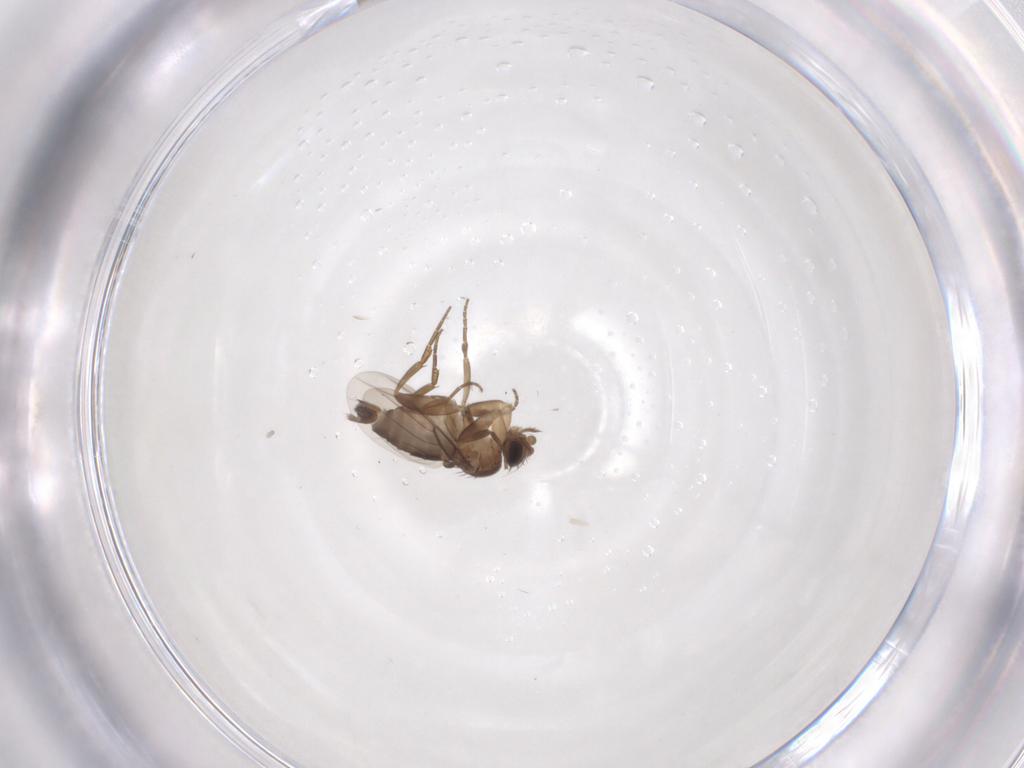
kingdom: Animalia
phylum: Arthropoda
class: Insecta
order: Diptera
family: Phoridae
